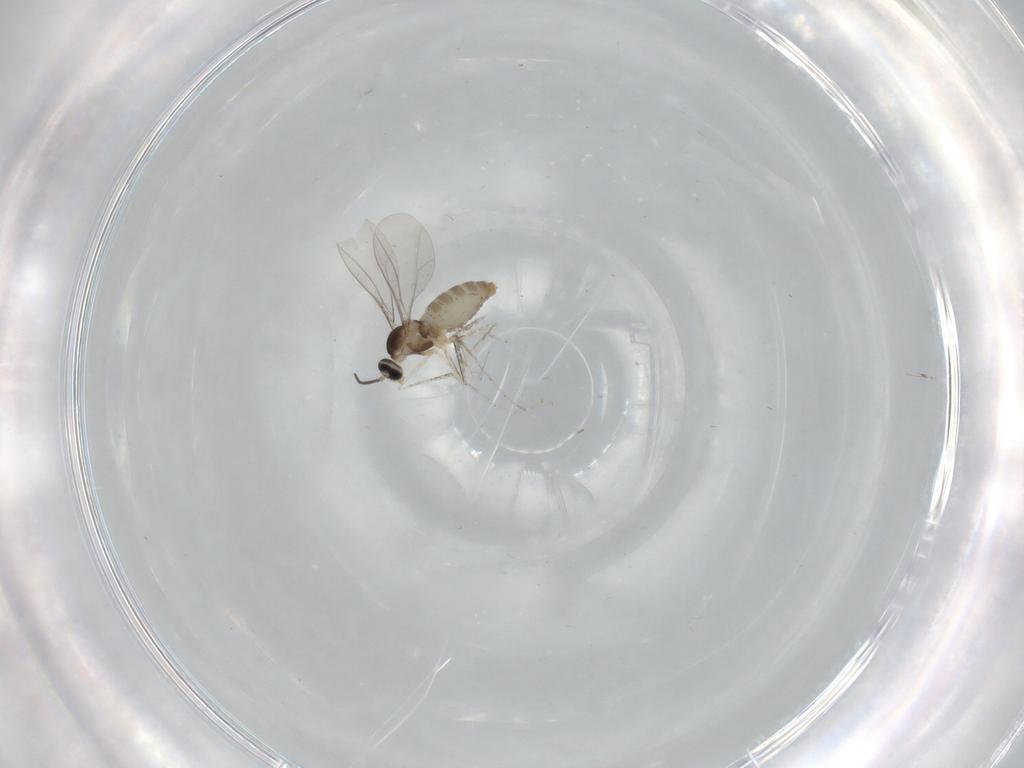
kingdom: Animalia
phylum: Arthropoda
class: Insecta
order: Diptera
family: Cecidomyiidae
